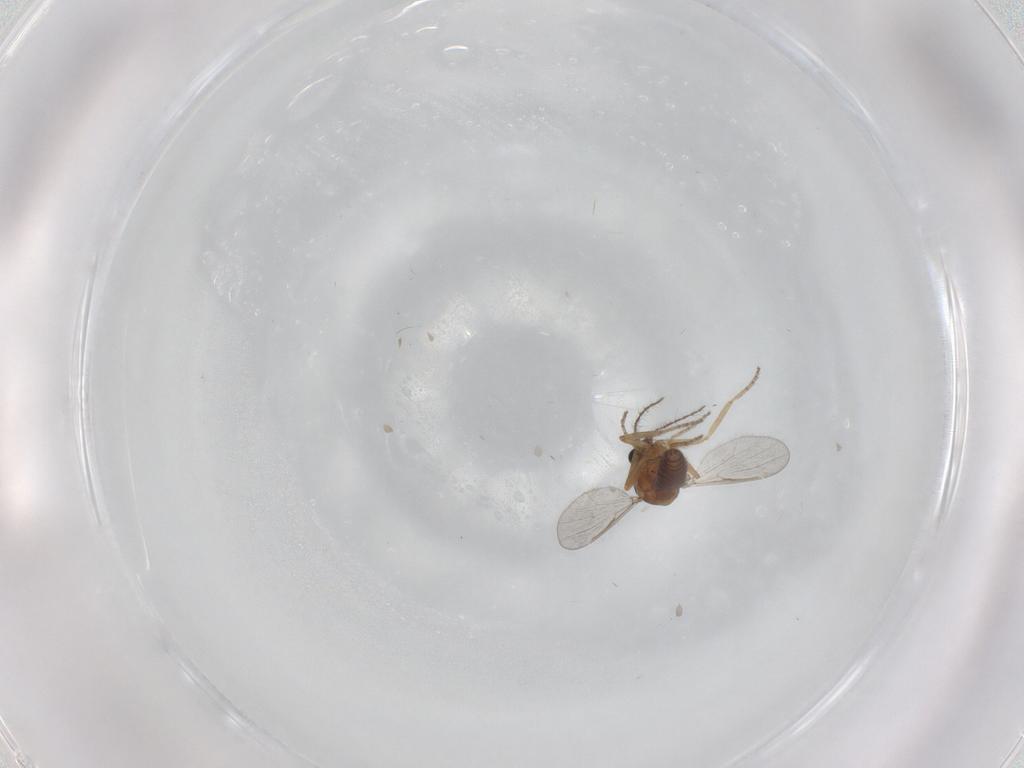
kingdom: Animalia
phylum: Arthropoda
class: Insecta
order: Diptera
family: Ceratopogonidae
